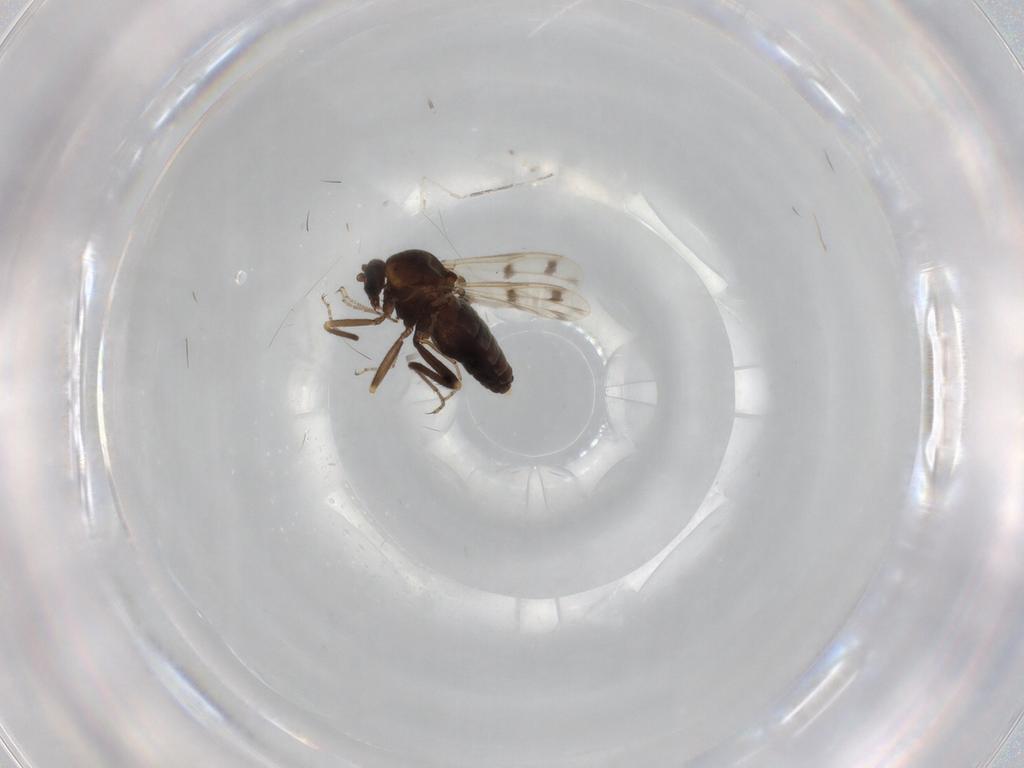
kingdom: Animalia
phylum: Arthropoda
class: Insecta
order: Diptera
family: Ceratopogonidae
